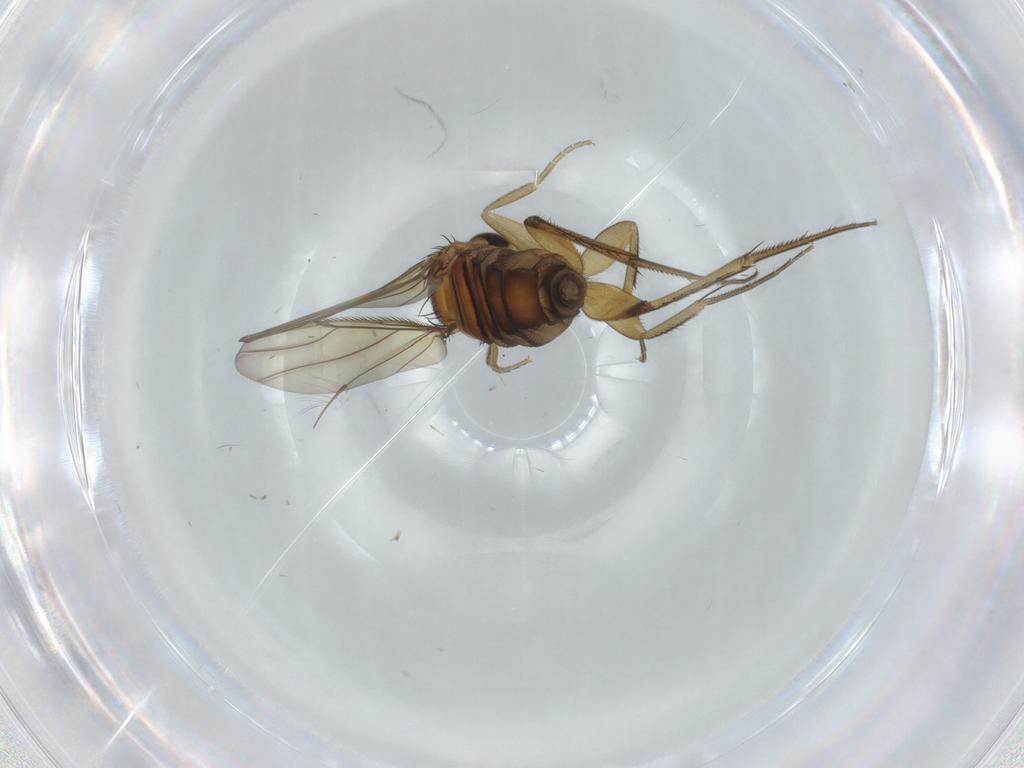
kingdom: Animalia
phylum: Arthropoda
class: Insecta
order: Diptera
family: Phoridae
